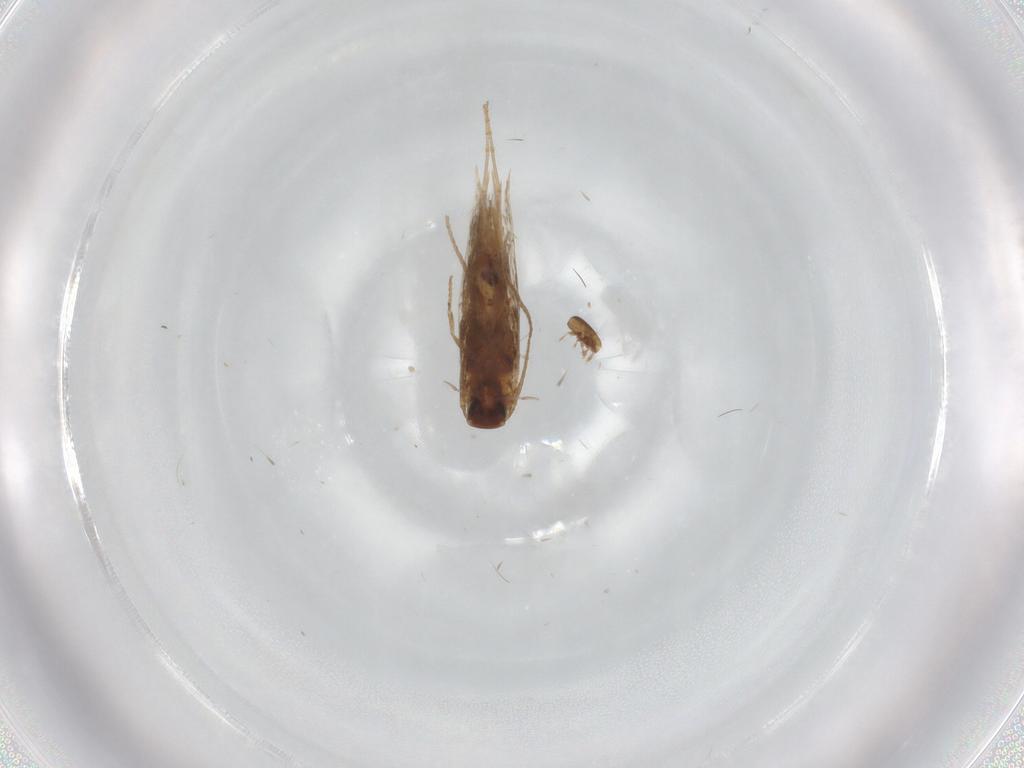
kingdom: Animalia
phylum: Arthropoda
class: Insecta
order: Lepidoptera
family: Elachistidae
